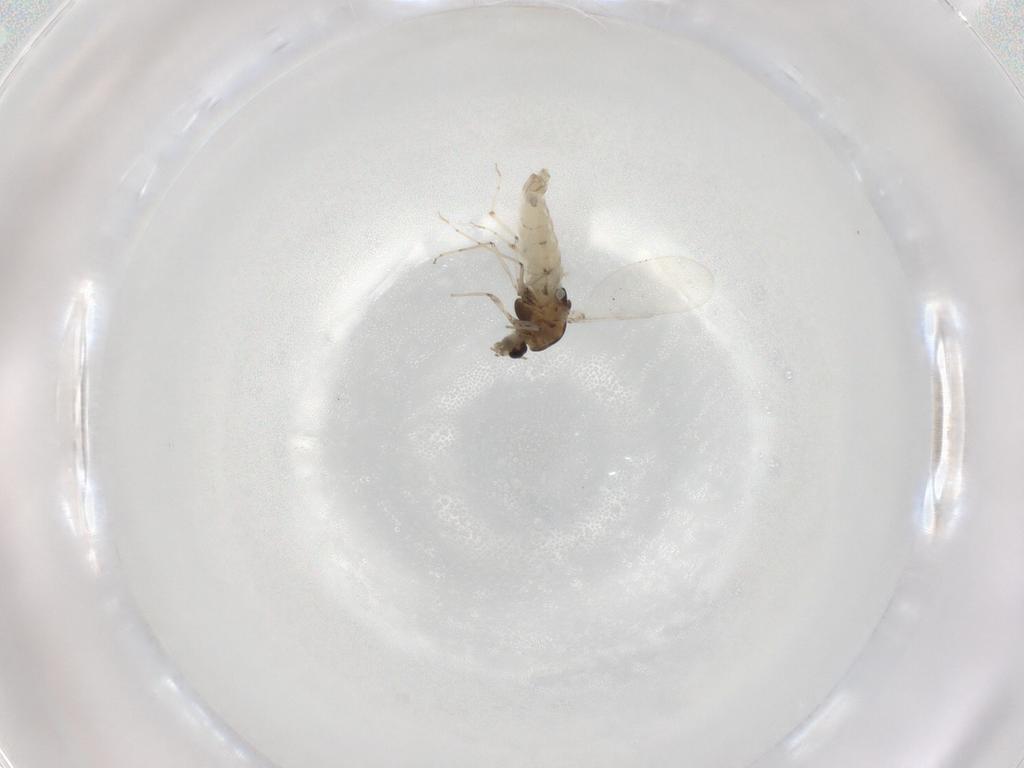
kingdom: Animalia
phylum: Arthropoda
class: Insecta
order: Diptera
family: Chironomidae
